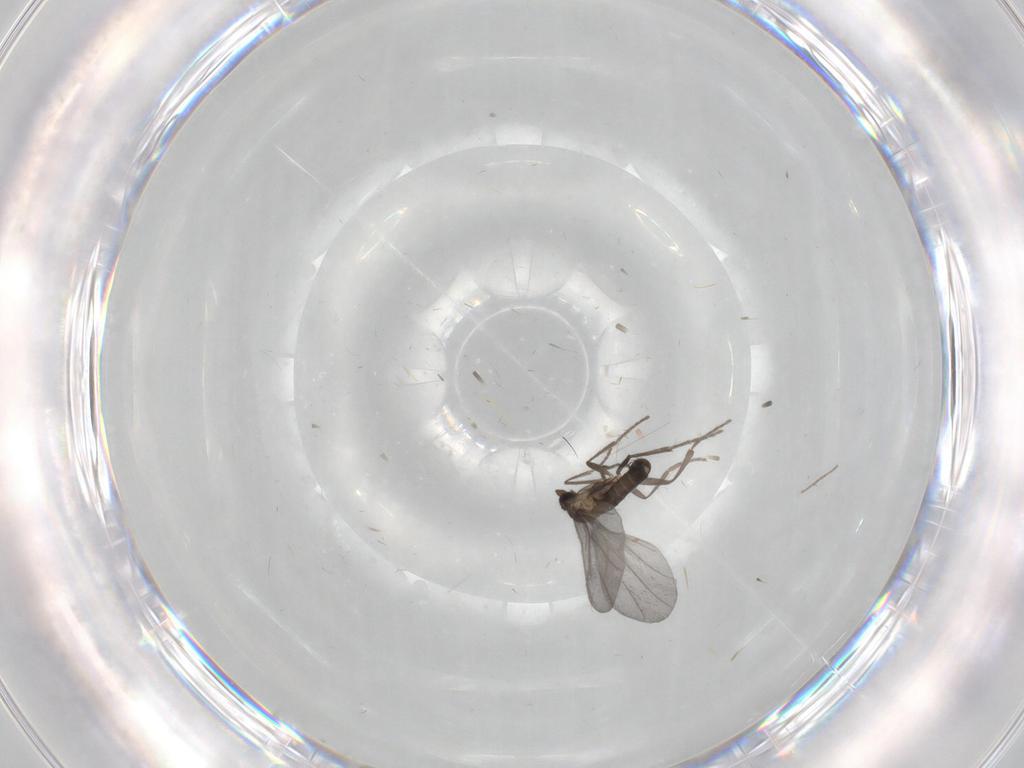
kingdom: Animalia
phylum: Arthropoda
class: Insecta
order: Diptera
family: Phoridae
